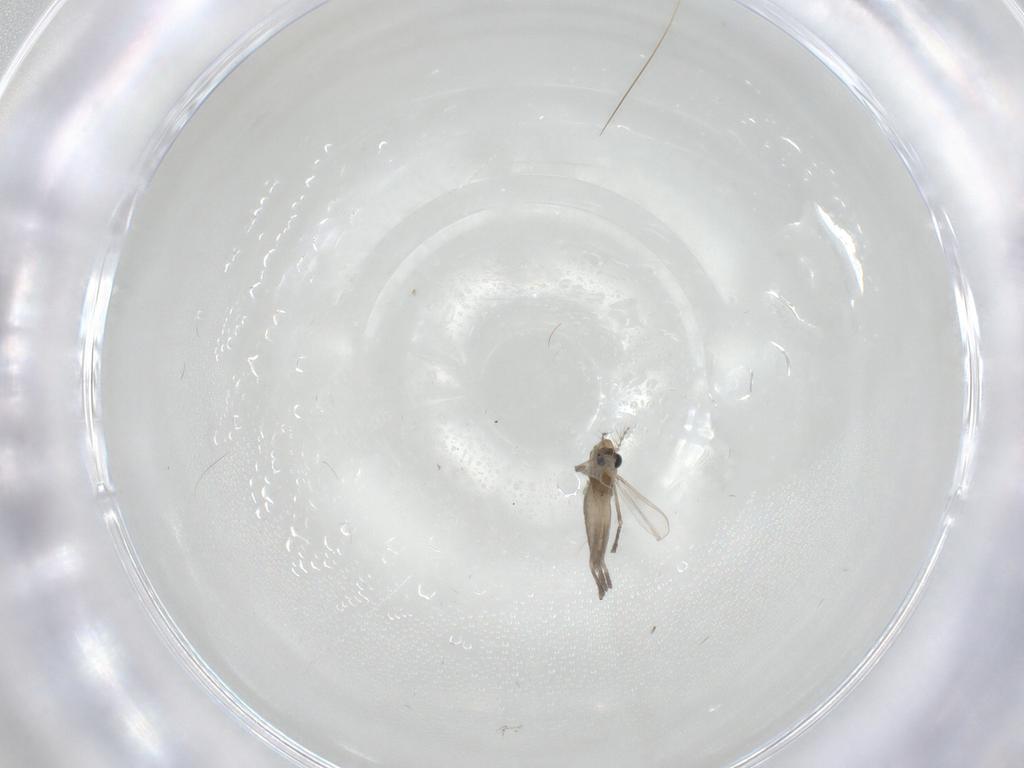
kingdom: Animalia
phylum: Arthropoda
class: Insecta
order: Diptera
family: Chironomidae
